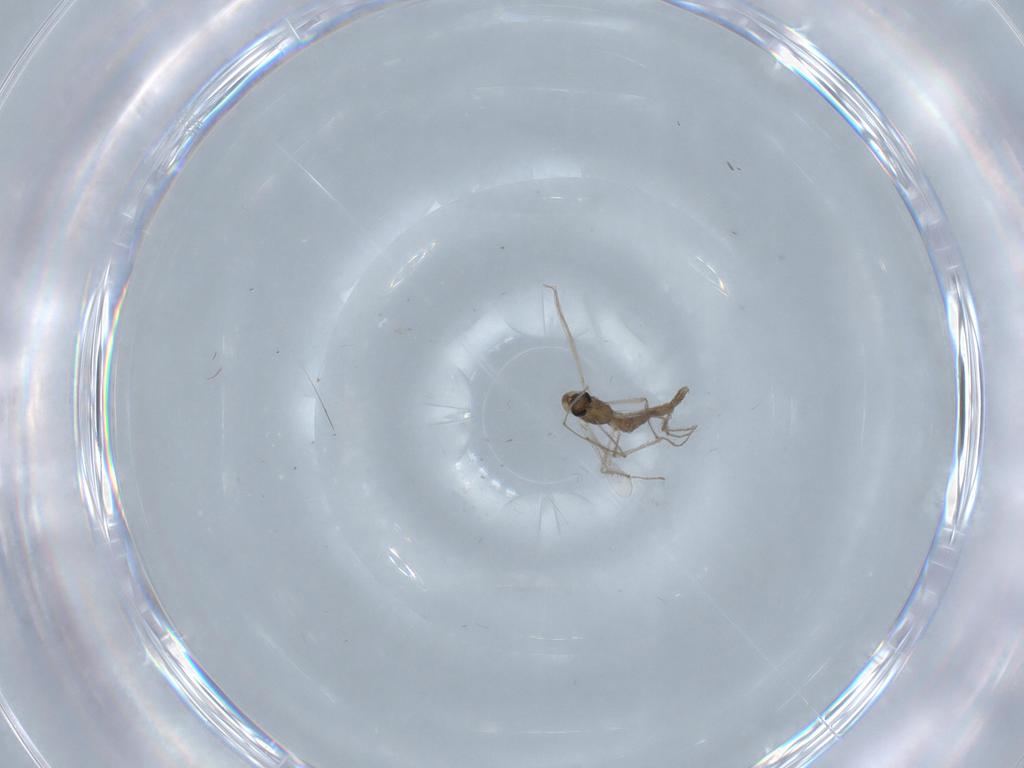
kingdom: Animalia
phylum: Arthropoda
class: Insecta
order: Diptera
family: Chironomidae
